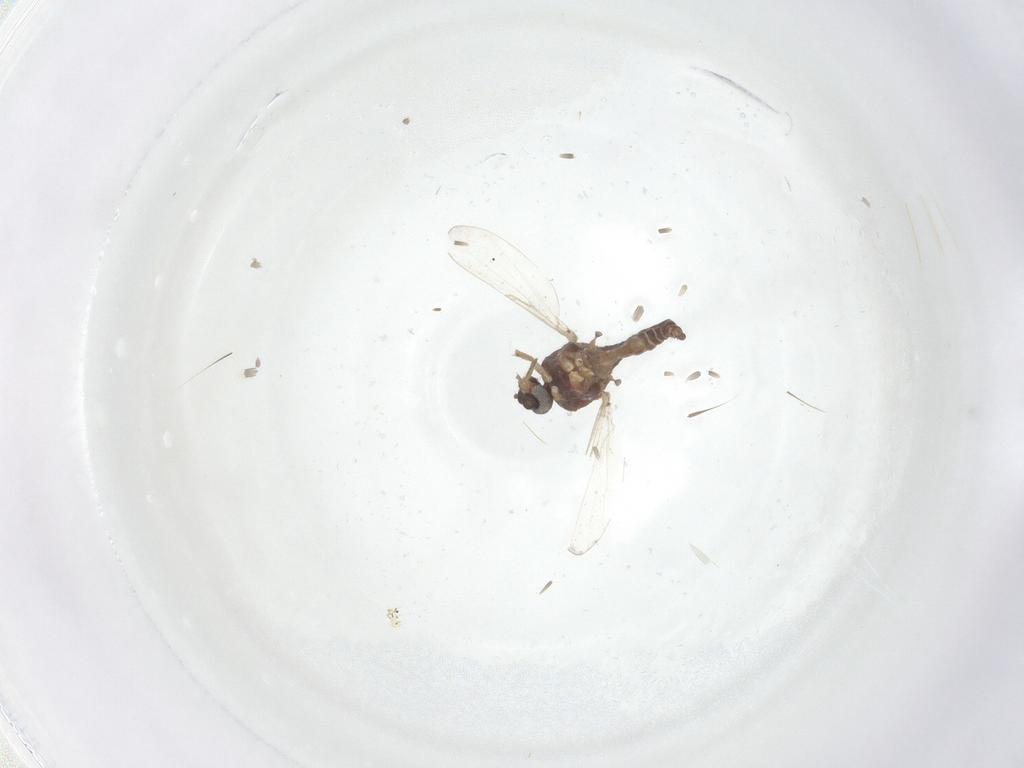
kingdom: Animalia
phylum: Arthropoda
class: Insecta
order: Diptera
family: Ceratopogonidae
